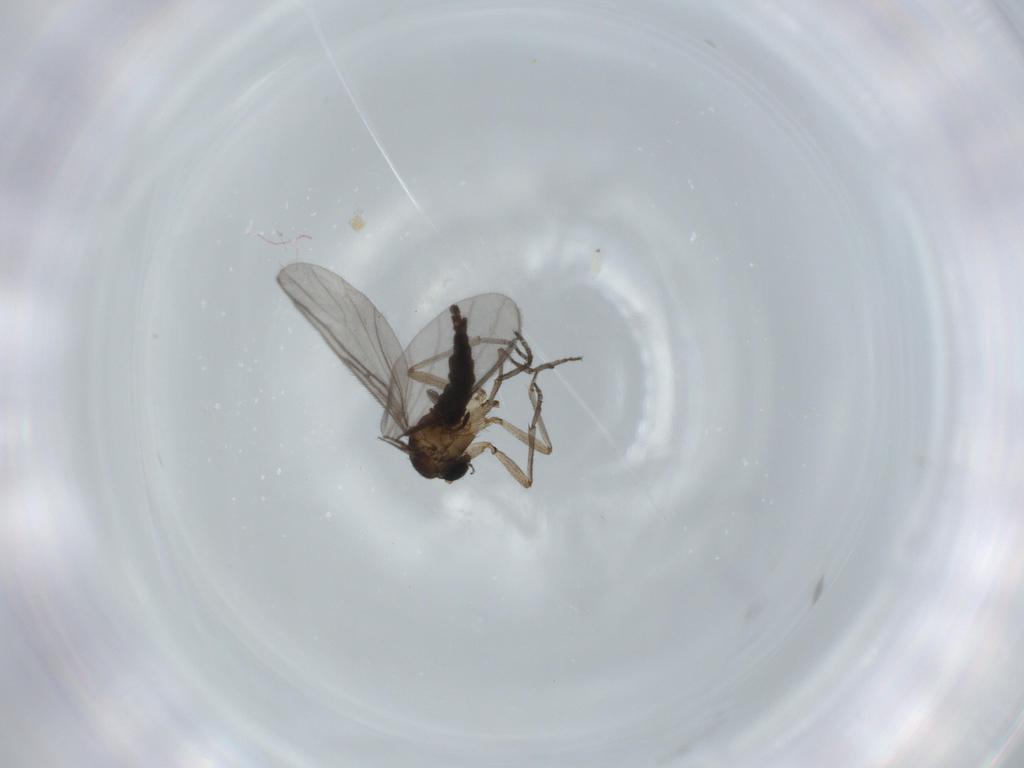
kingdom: Animalia
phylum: Arthropoda
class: Insecta
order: Diptera
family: Sciaridae
